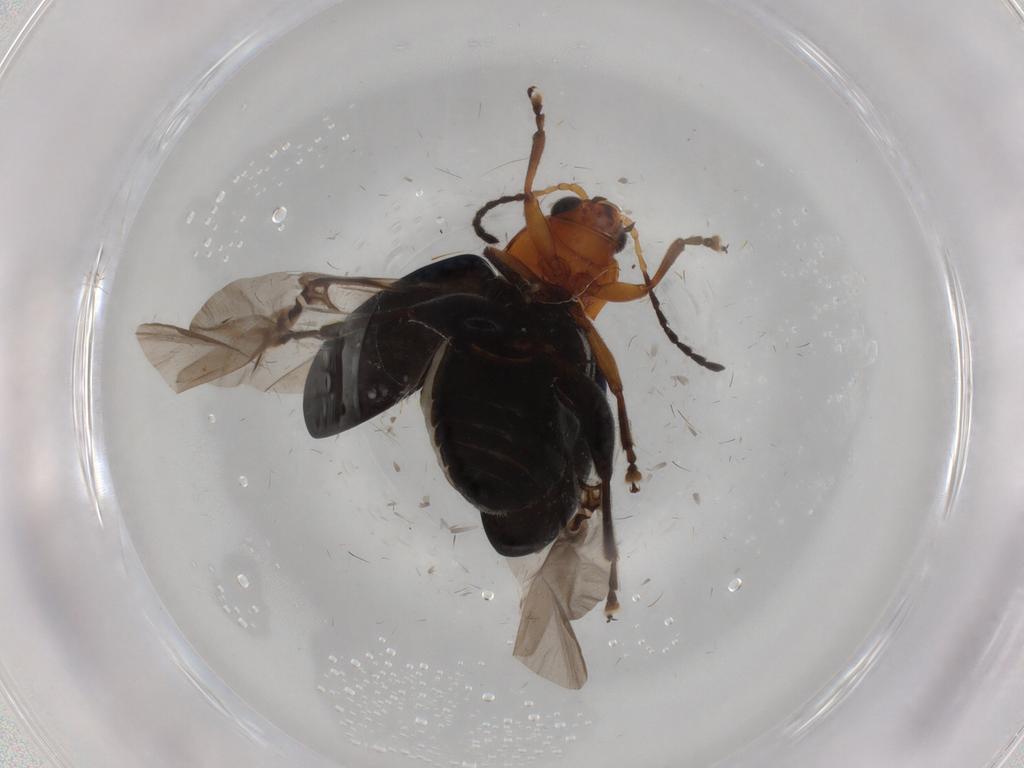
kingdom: Animalia
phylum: Arthropoda
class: Insecta
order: Coleoptera
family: Chrysomelidae
